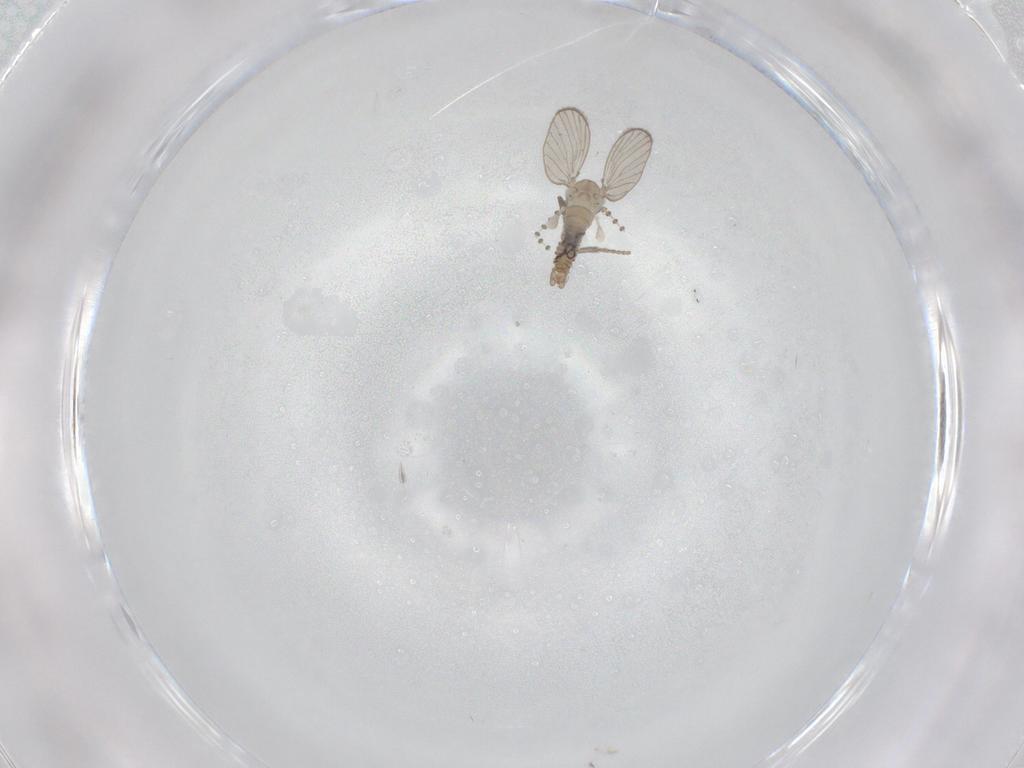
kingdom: Animalia
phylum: Arthropoda
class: Insecta
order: Diptera
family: Psychodidae
